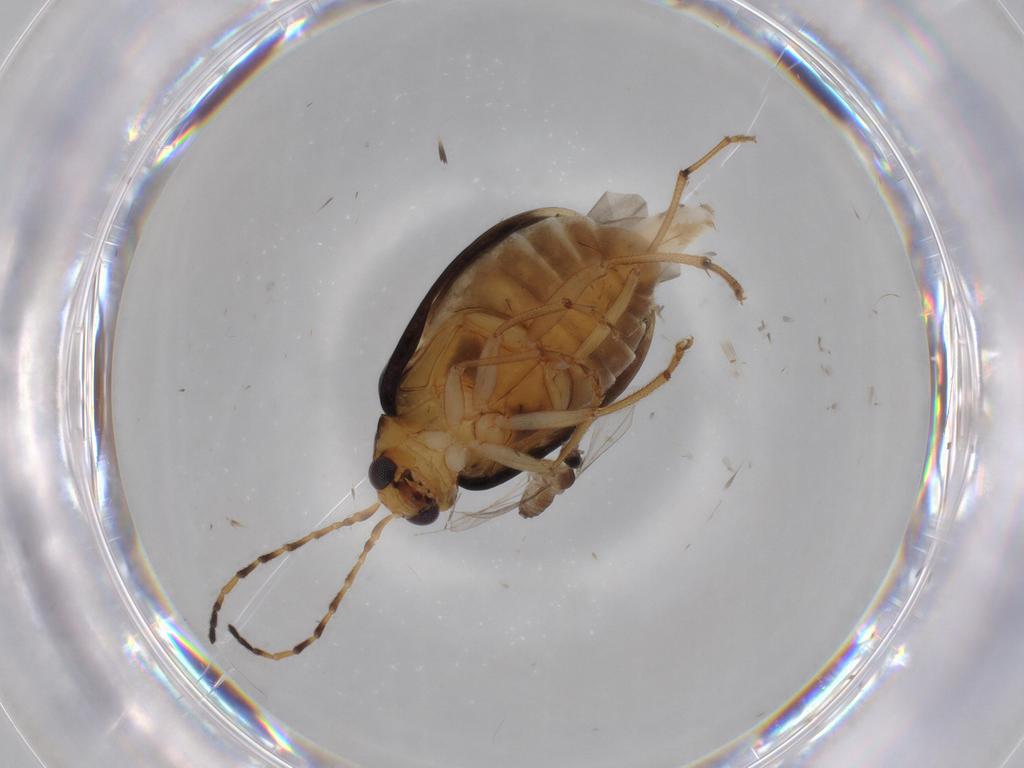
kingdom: Animalia
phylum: Arthropoda
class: Insecta
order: Coleoptera
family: Chrysomelidae
